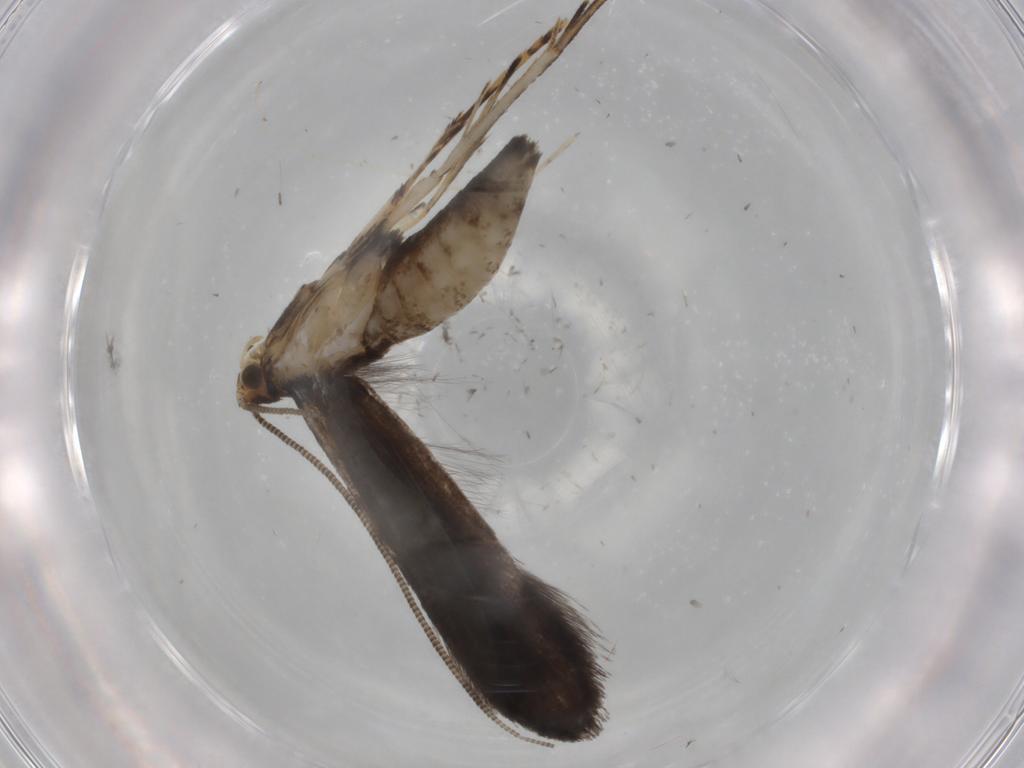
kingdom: Animalia
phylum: Arthropoda
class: Insecta
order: Lepidoptera
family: Tineidae
